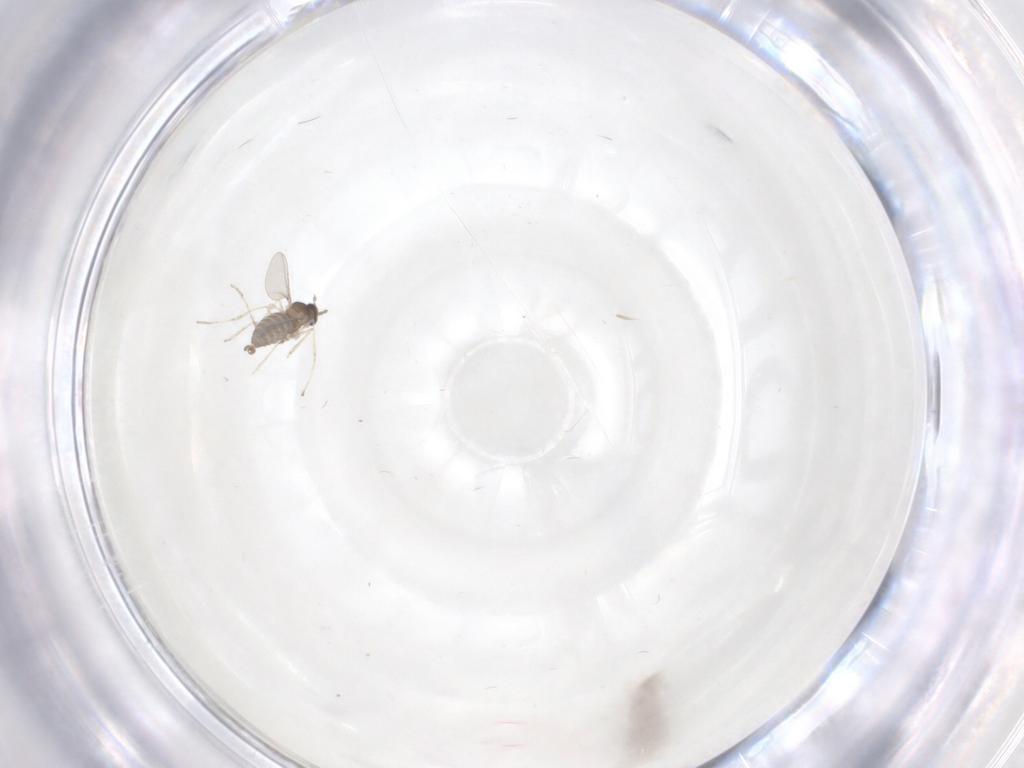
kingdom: Animalia
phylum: Arthropoda
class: Insecta
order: Diptera
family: Cecidomyiidae
